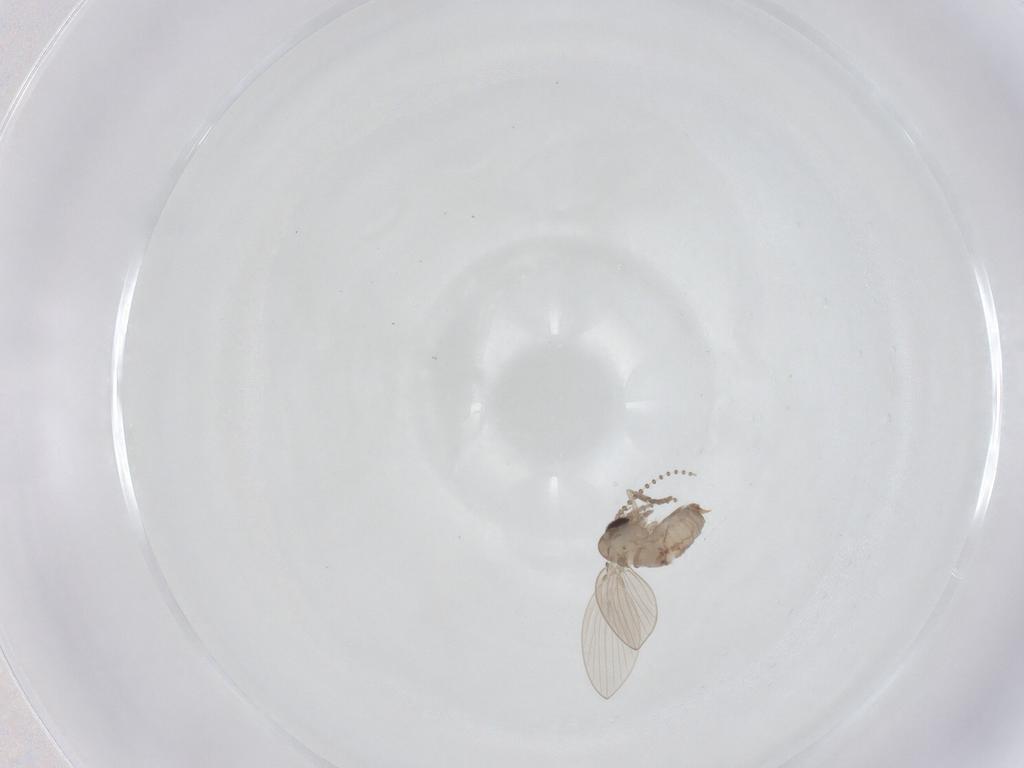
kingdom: Animalia
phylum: Arthropoda
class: Insecta
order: Diptera
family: Psychodidae
